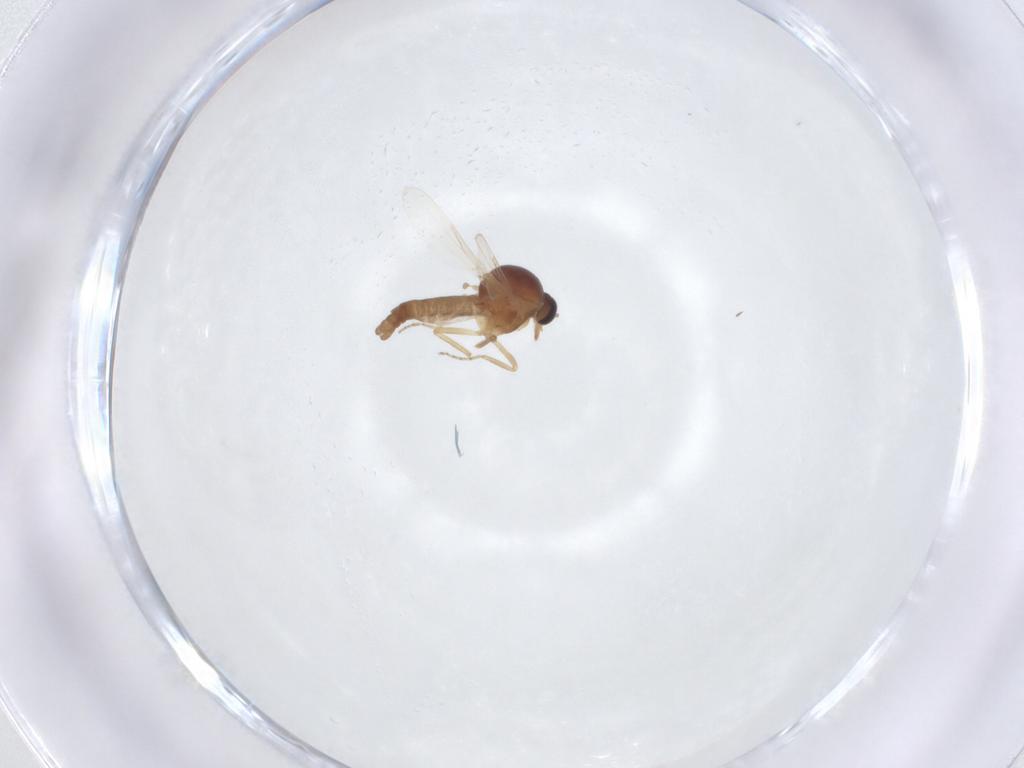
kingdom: Animalia
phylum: Arthropoda
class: Insecta
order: Diptera
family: Ceratopogonidae
